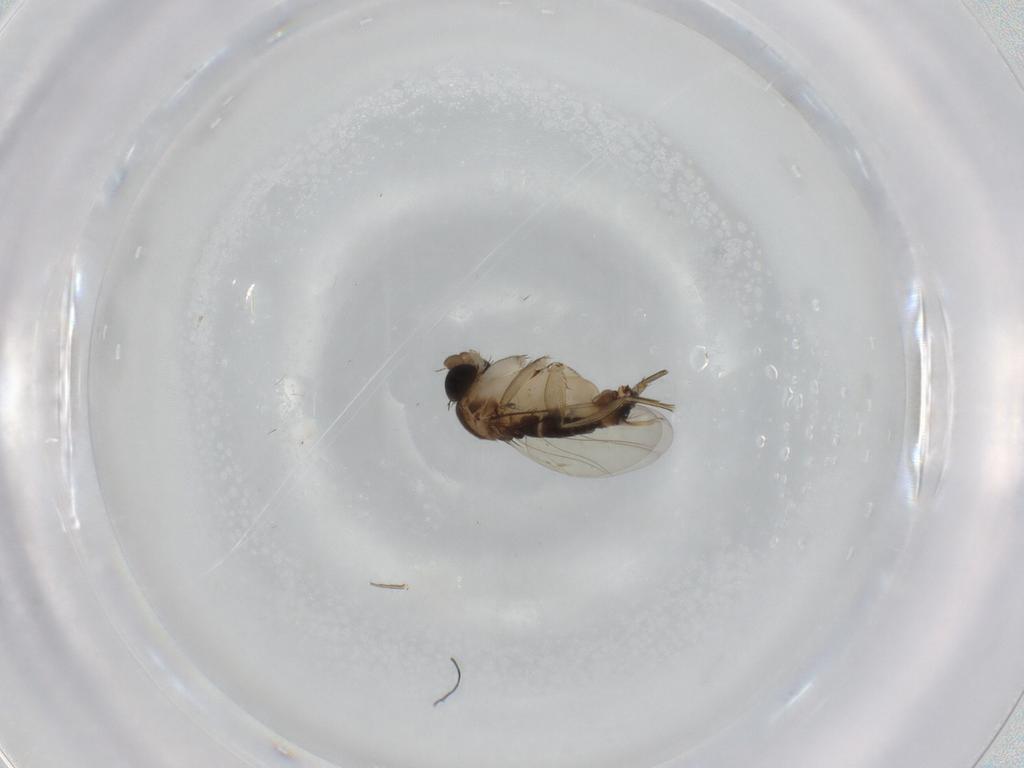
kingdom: Animalia
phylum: Arthropoda
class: Insecta
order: Diptera
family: Phoridae
